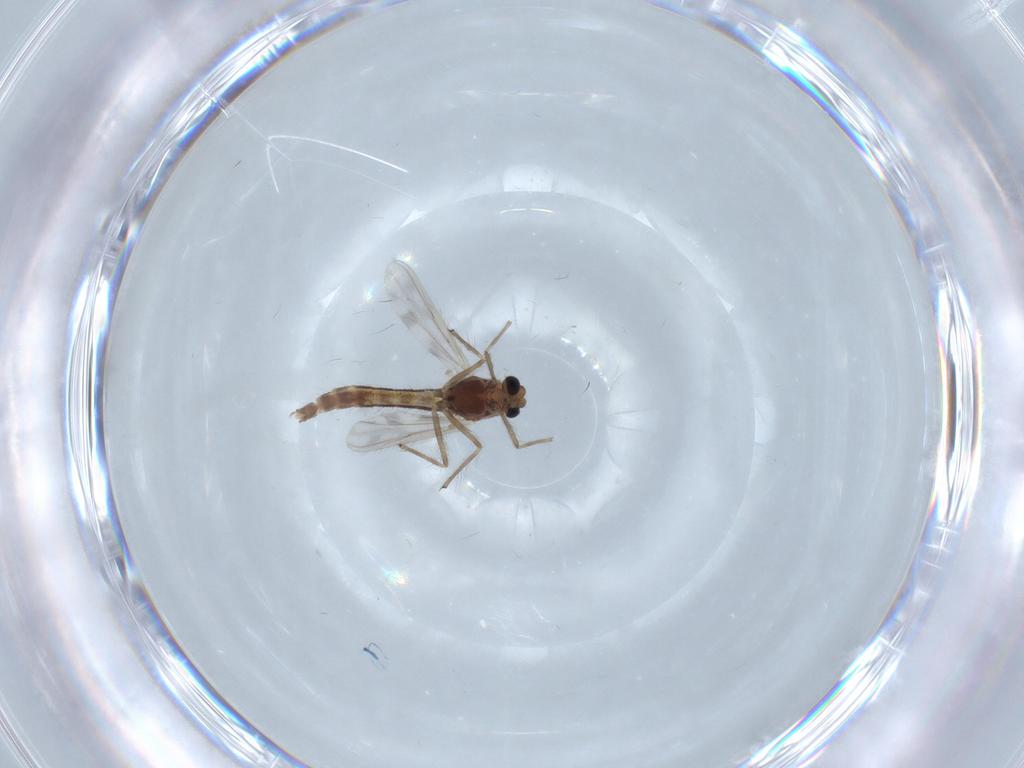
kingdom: Animalia
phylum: Arthropoda
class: Insecta
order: Diptera
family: Chironomidae
